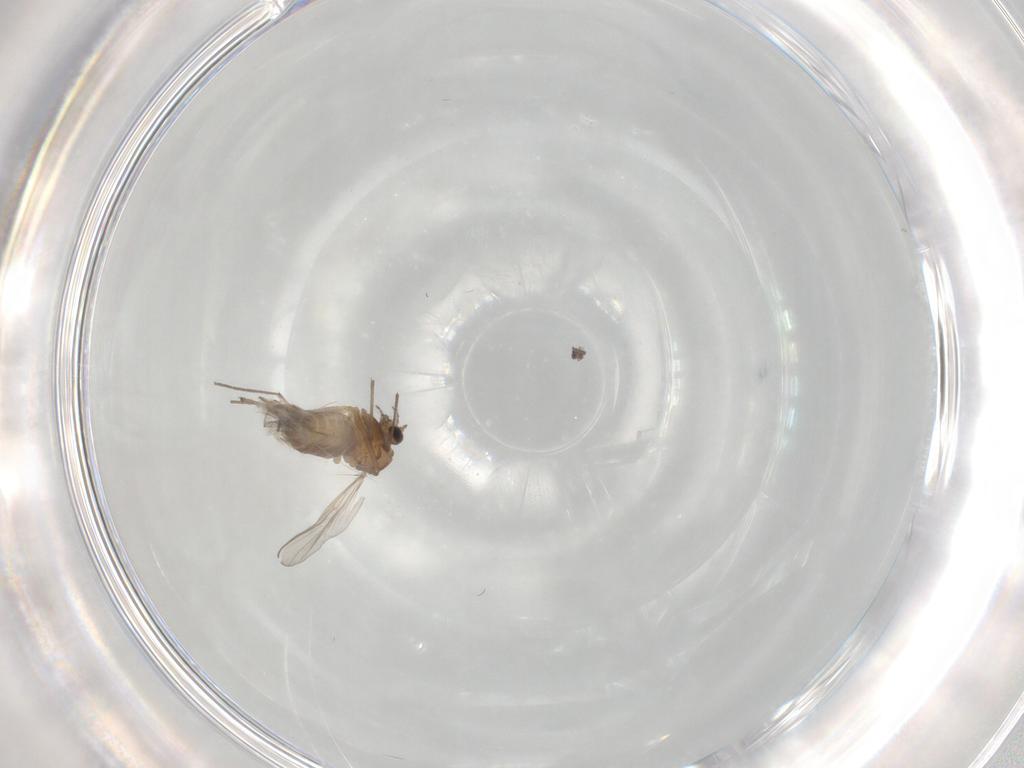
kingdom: Animalia
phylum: Arthropoda
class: Insecta
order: Diptera
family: Chironomidae
